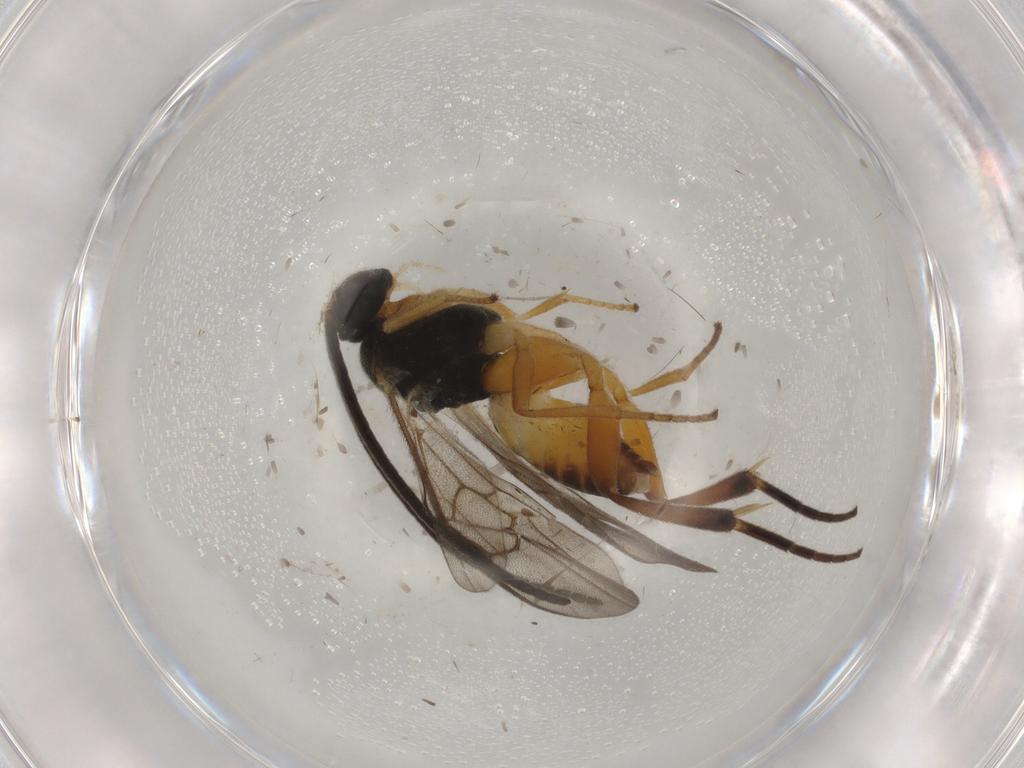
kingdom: Animalia
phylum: Arthropoda
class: Insecta
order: Hymenoptera
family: Braconidae
